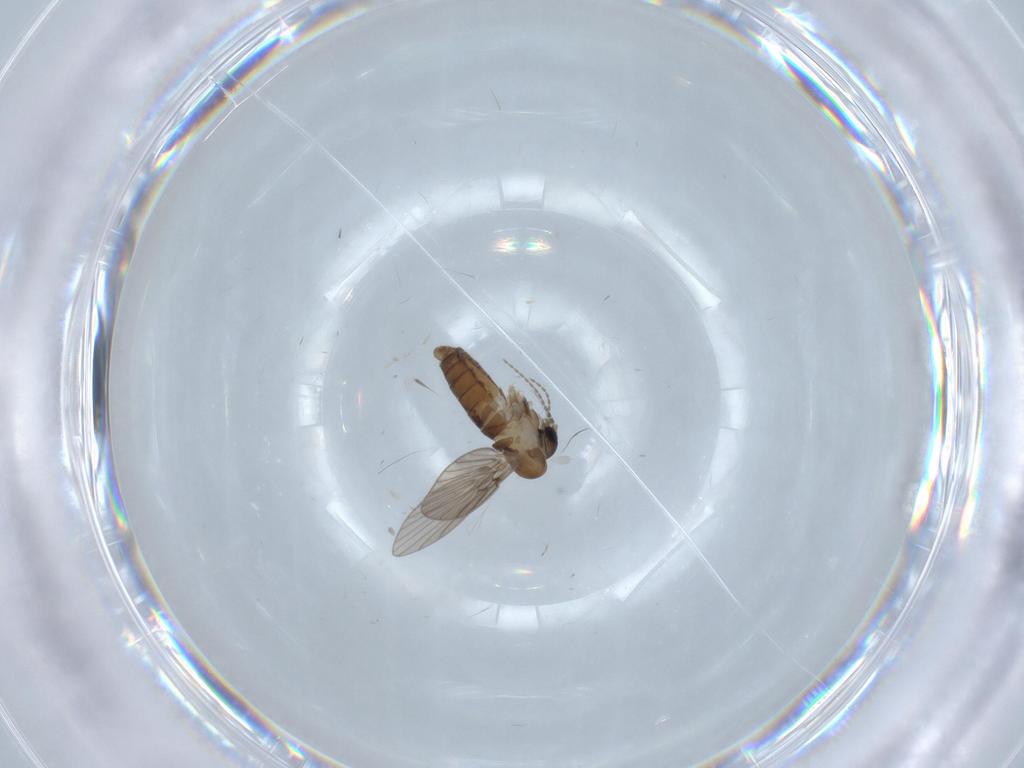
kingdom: Animalia
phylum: Arthropoda
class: Insecta
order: Diptera
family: Psychodidae
